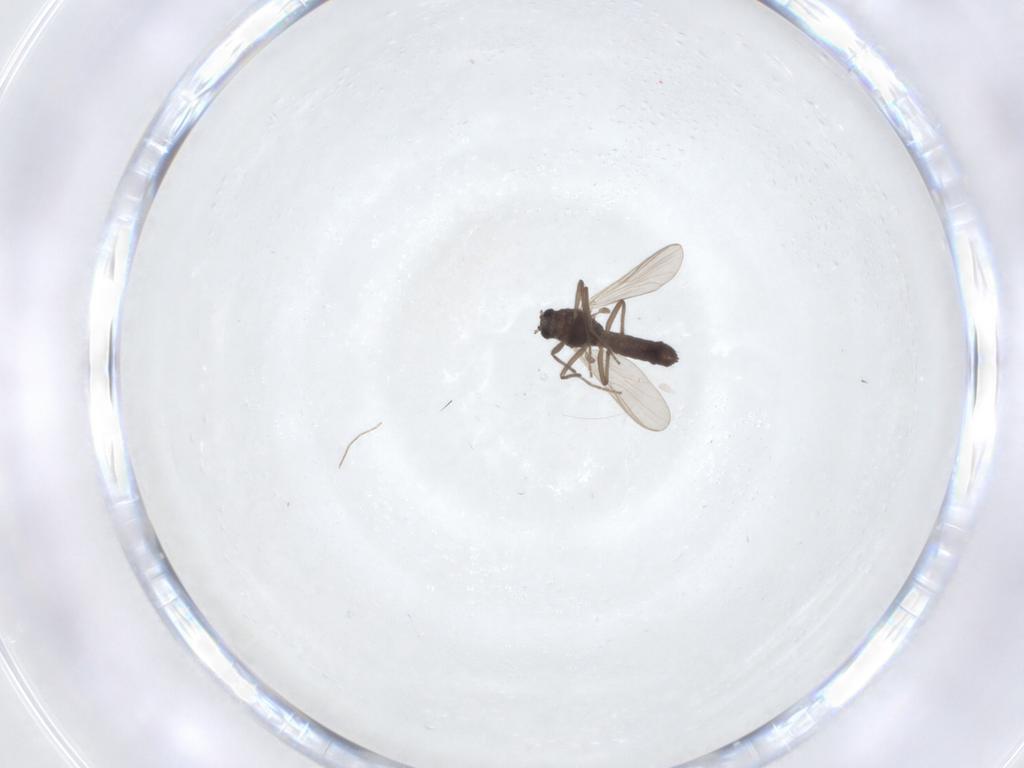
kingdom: Animalia
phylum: Arthropoda
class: Insecta
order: Diptera
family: Chironomidae
